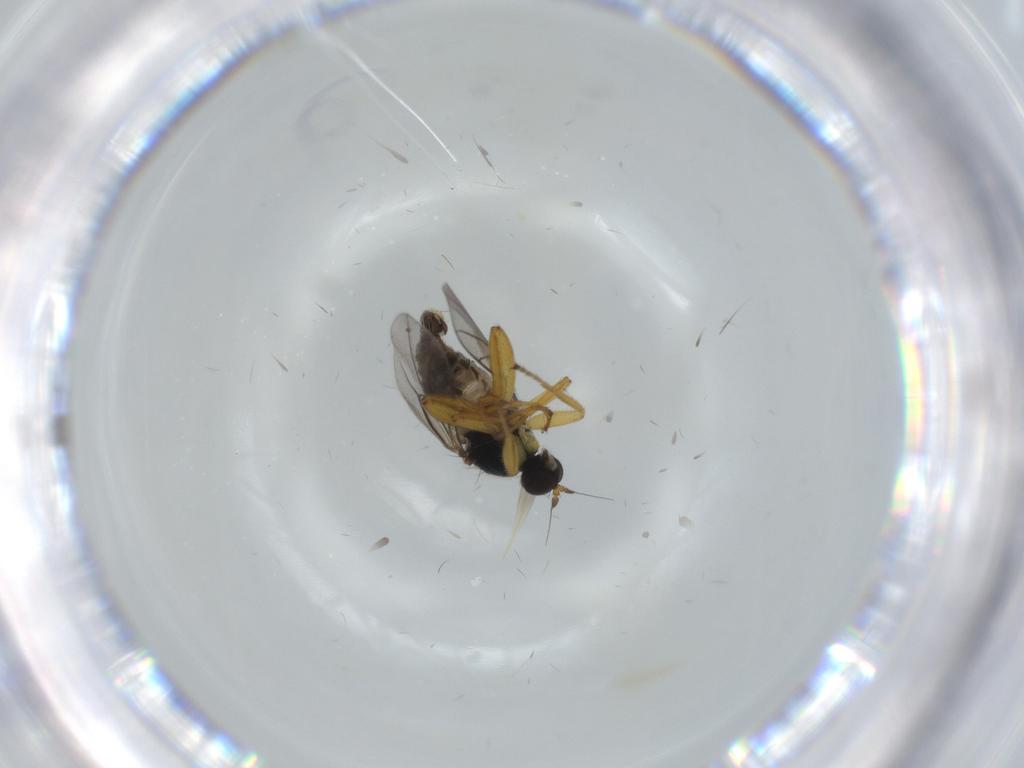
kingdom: Animalia
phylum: Arthropoda
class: Insecta
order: Diptera
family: Hybotidae
